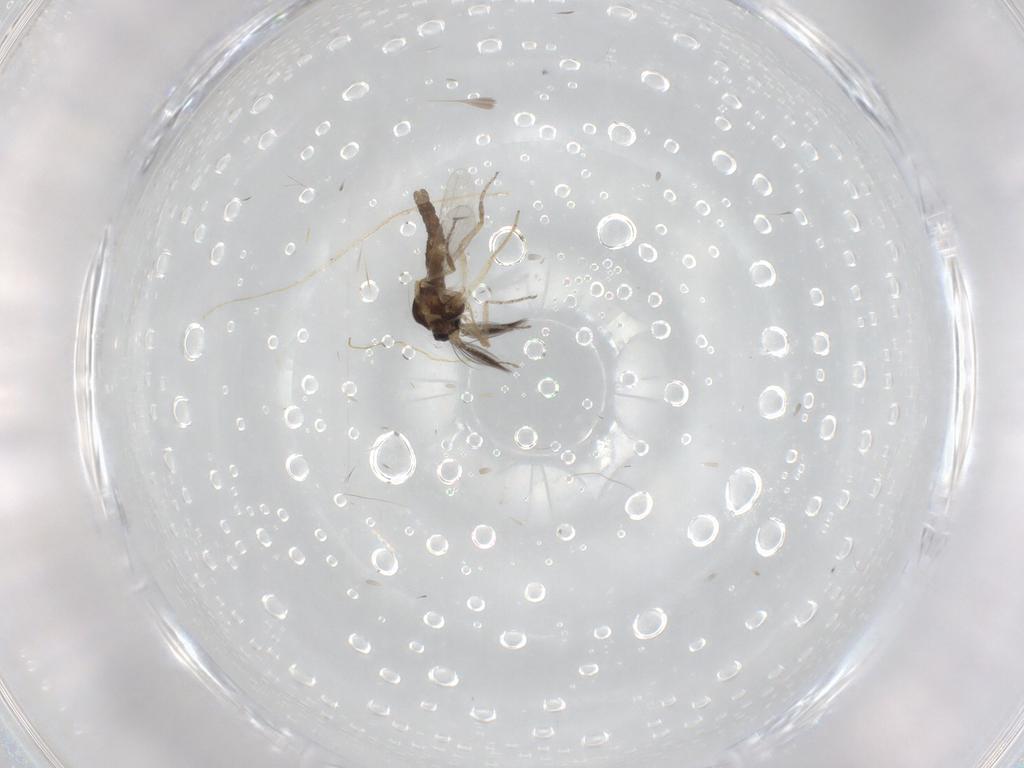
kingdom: Animalia
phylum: Arthropoda
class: Insecta
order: Diptera
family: Ceratopogonidae
